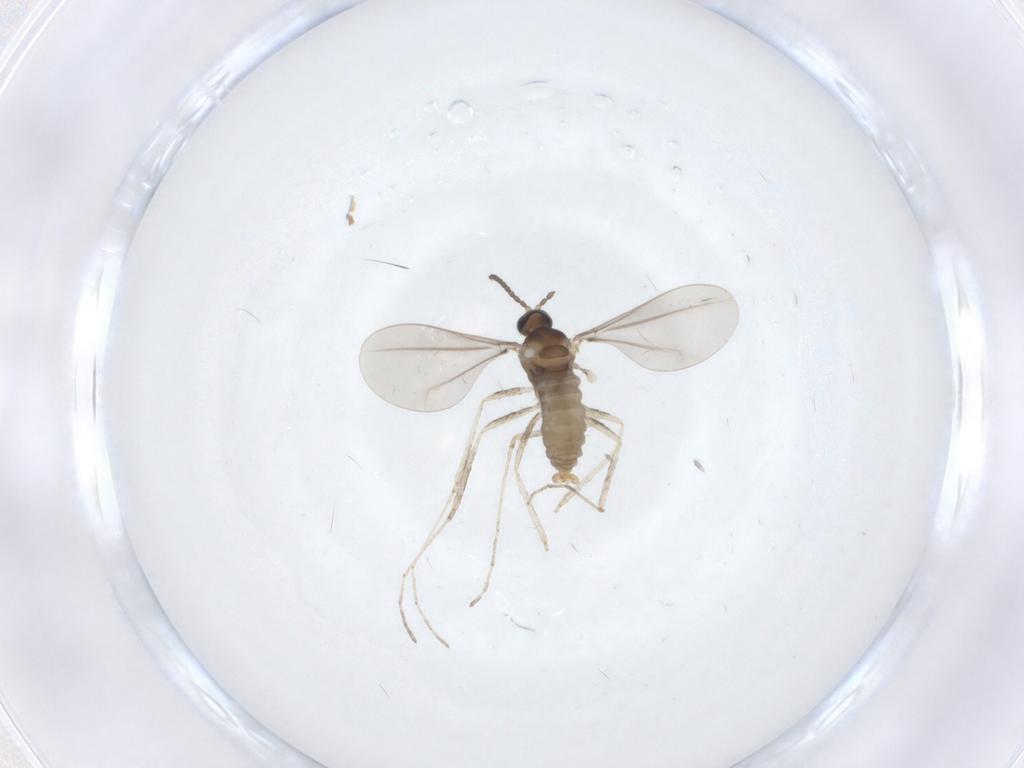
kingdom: Animalia
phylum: Arthropoda
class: Insecta
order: Diptera
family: Cecidomyiidae
